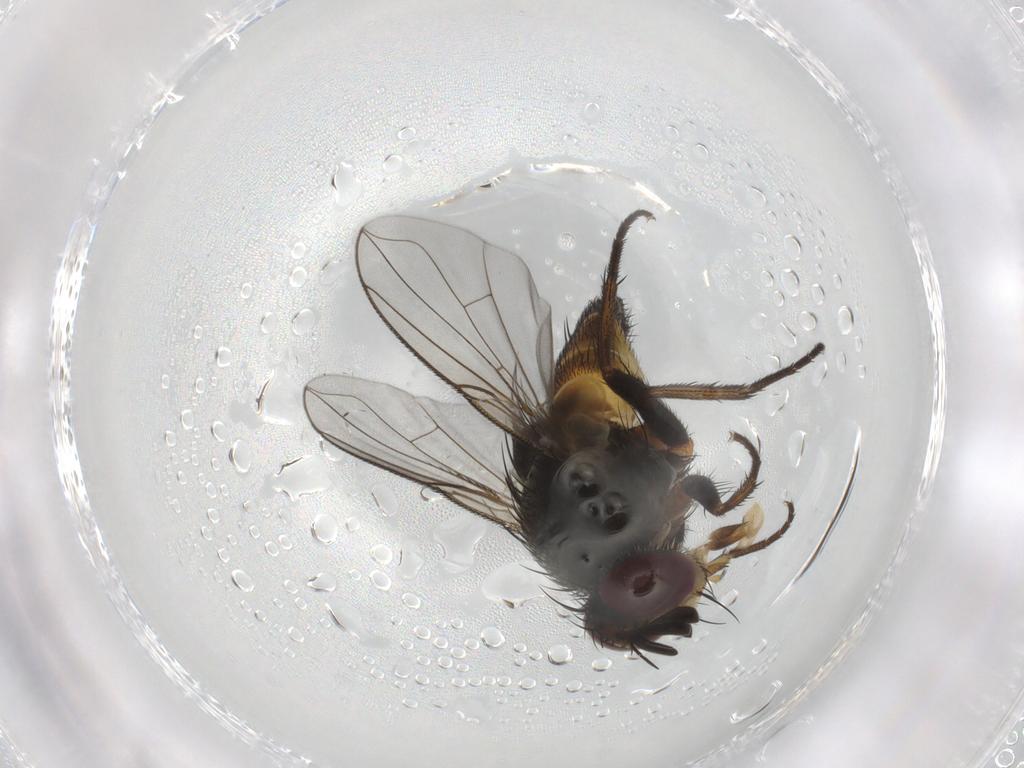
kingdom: Animalia
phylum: Arthropoda
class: Insecta
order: Diptera
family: Tachinidae
